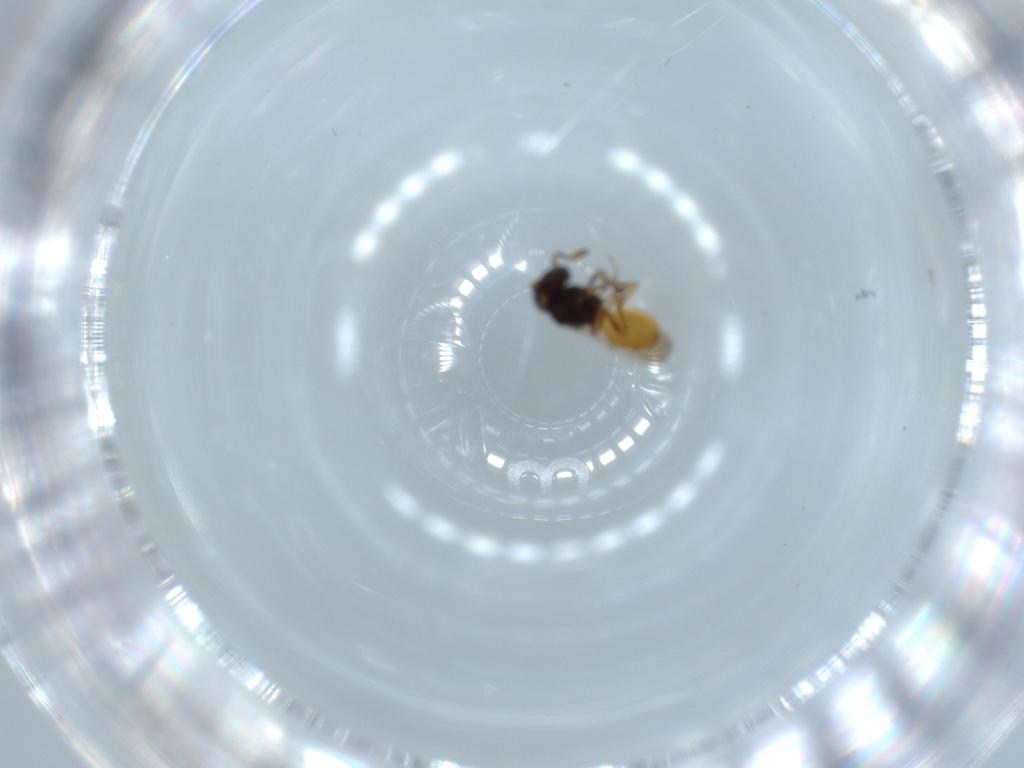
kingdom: Animalia
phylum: Arthropoda
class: Insecta
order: Hymenoptera
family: Scelionidae
